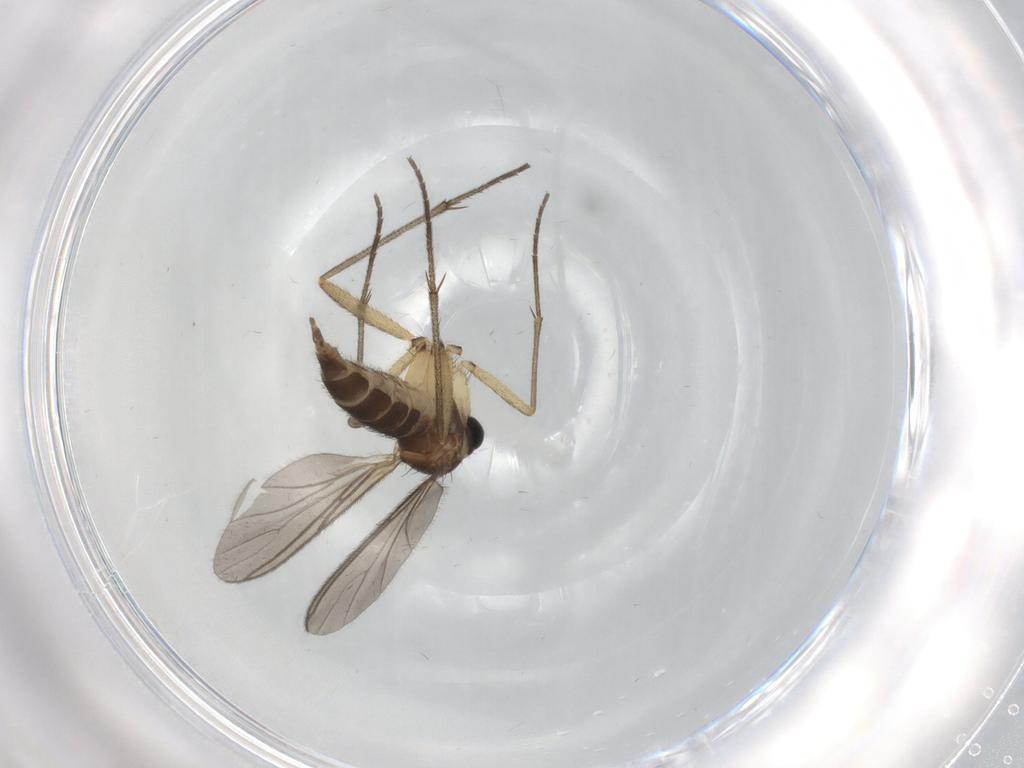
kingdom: Animalia
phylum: Arthropoda
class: Insecta
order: Diptera
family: Sciaridae
